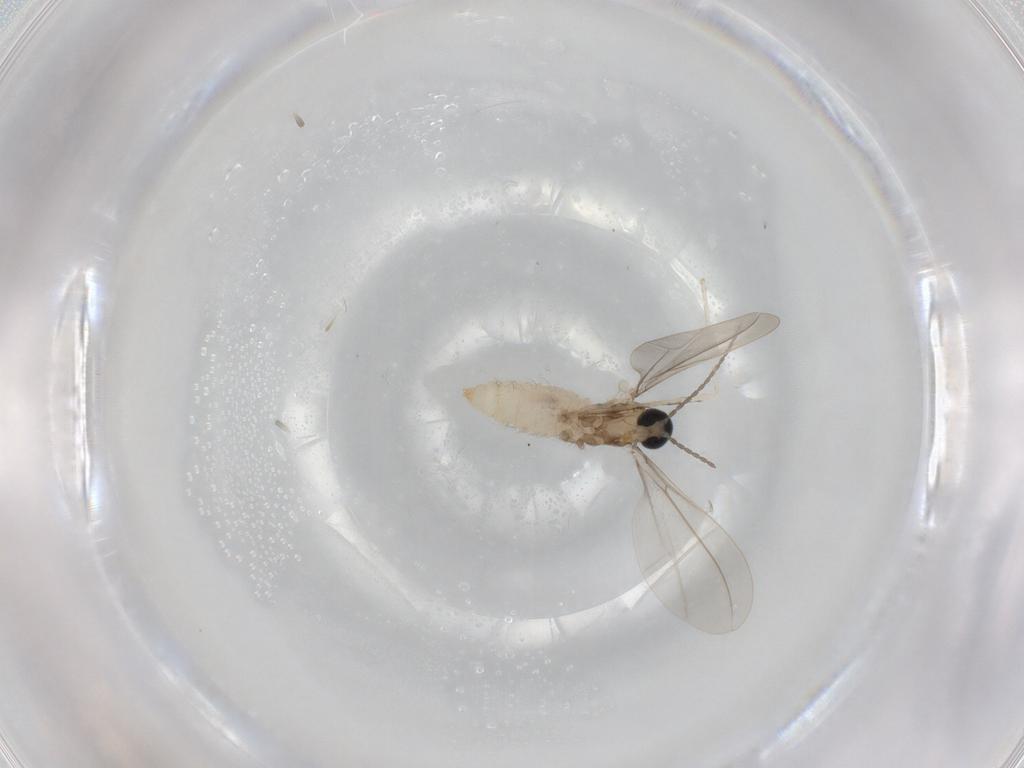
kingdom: Animalia
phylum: Arthropoda
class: Insecta
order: Diptera
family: Cecidomyiidae
